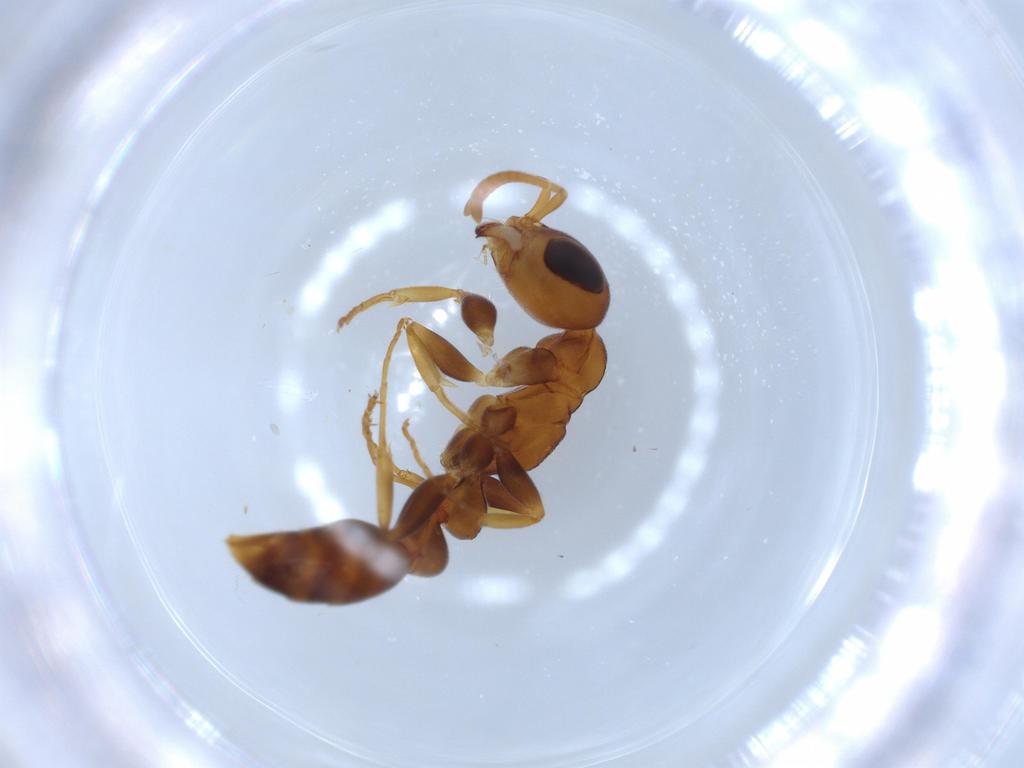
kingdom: Animalia
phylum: Arthropoda
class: Insecta
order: Hymenoptera
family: Formicidae
